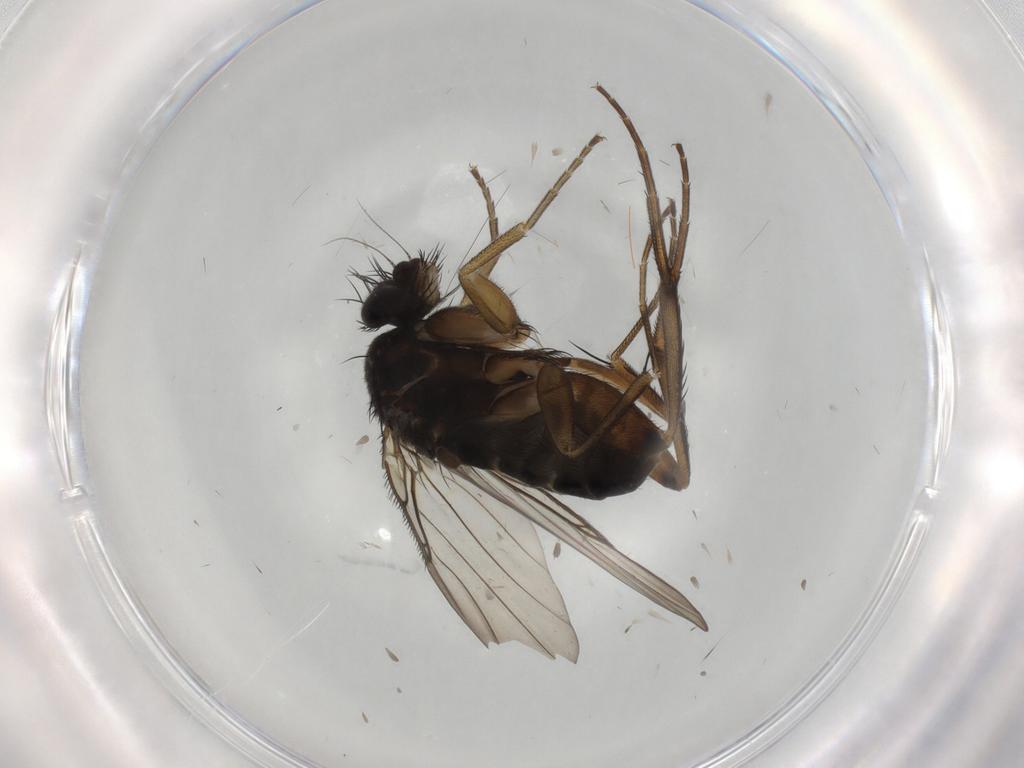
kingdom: Animalia
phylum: Arthropoda
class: Insecta
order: Diptera
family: Phoridae
